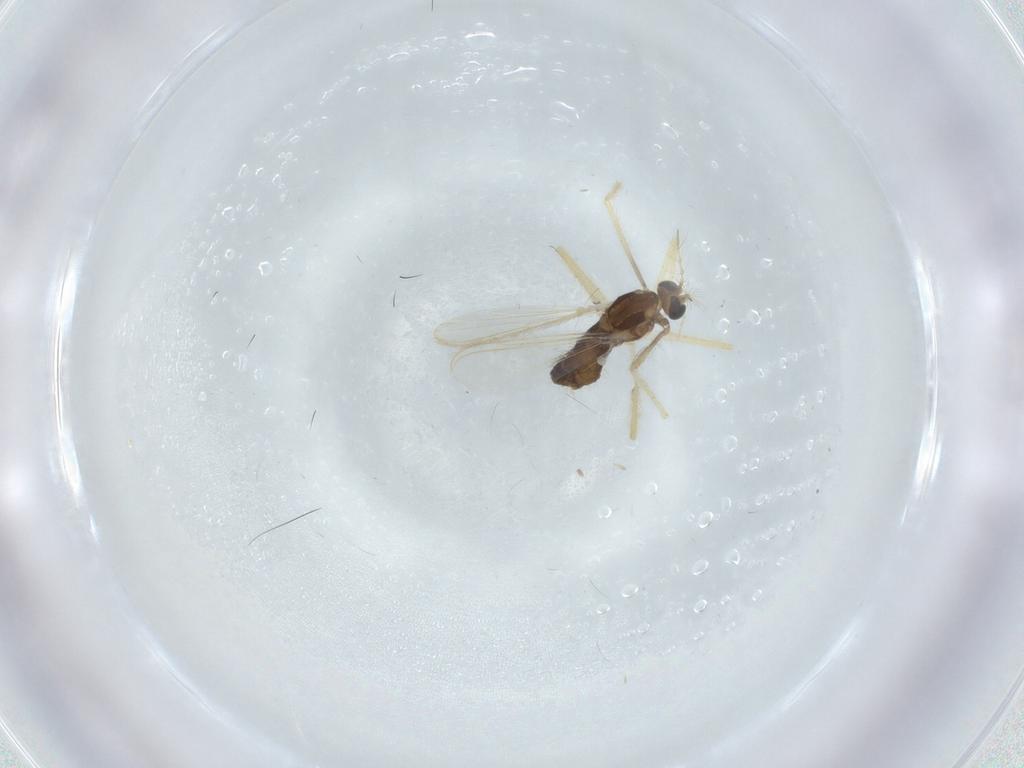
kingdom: Animalia
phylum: Arthropoda
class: Insecta
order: Diptera
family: Chironomidae
